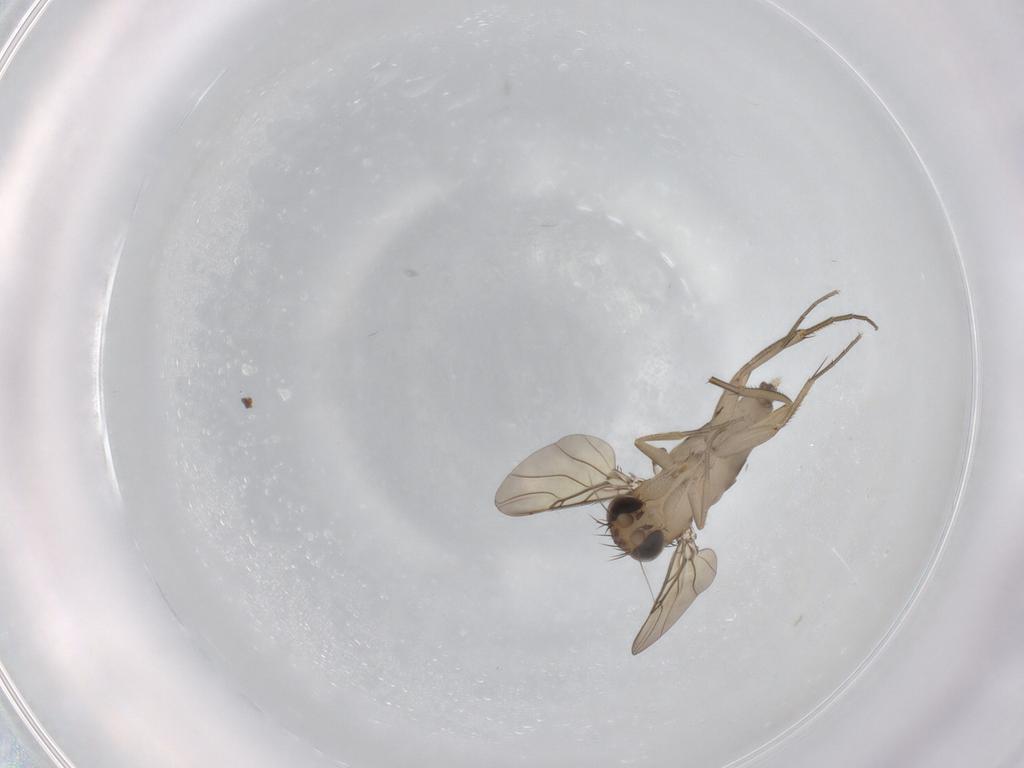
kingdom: Animalia
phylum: Arthropoda
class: Insecta
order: Diptera
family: Phoridae
